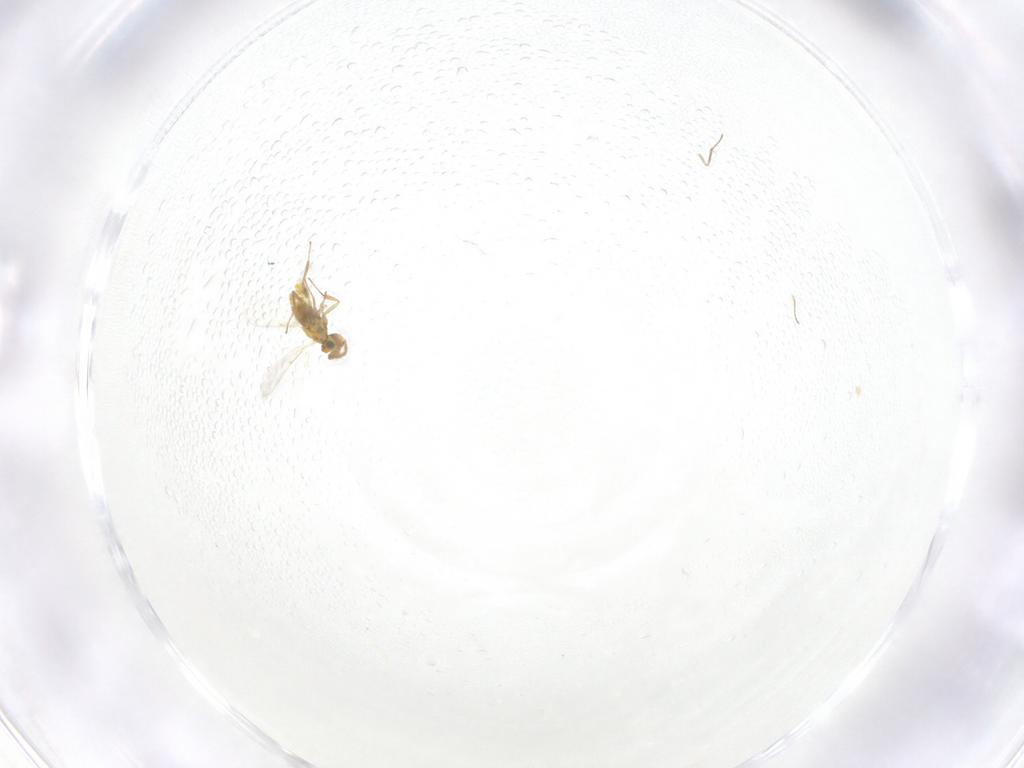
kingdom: Animalia
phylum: Arthropoda
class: Insecta
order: Hymenoptera
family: Aphelinidae
